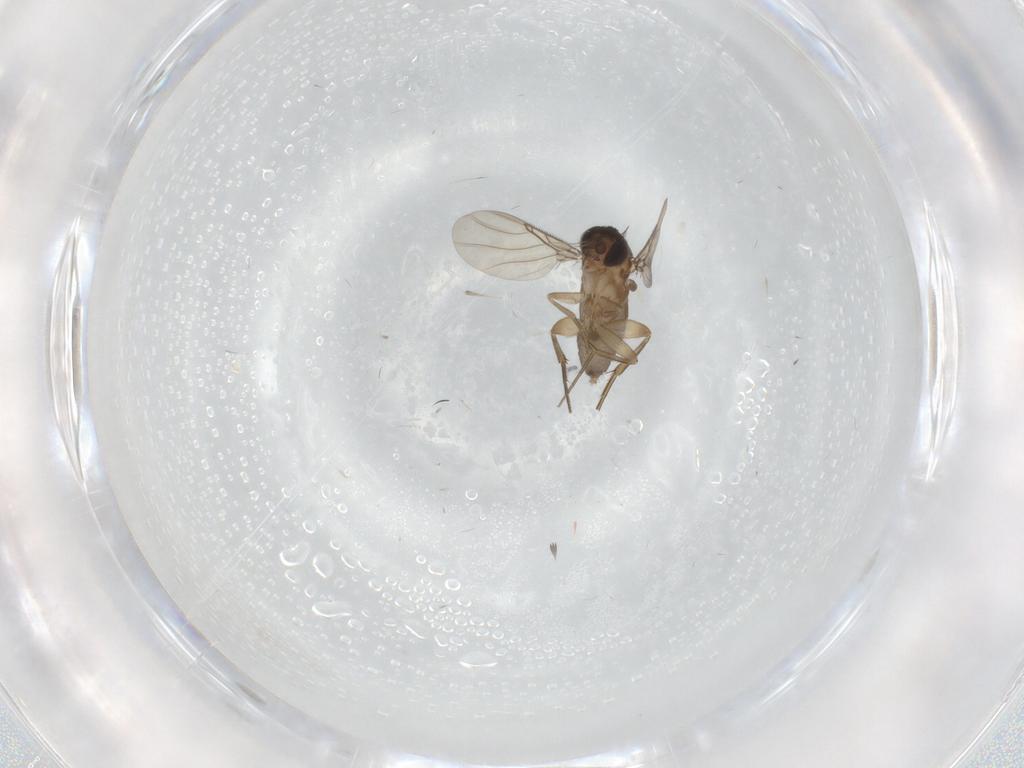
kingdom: Animalia
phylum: Arthropoda
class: Insecta
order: Diptera
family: Phoridae
